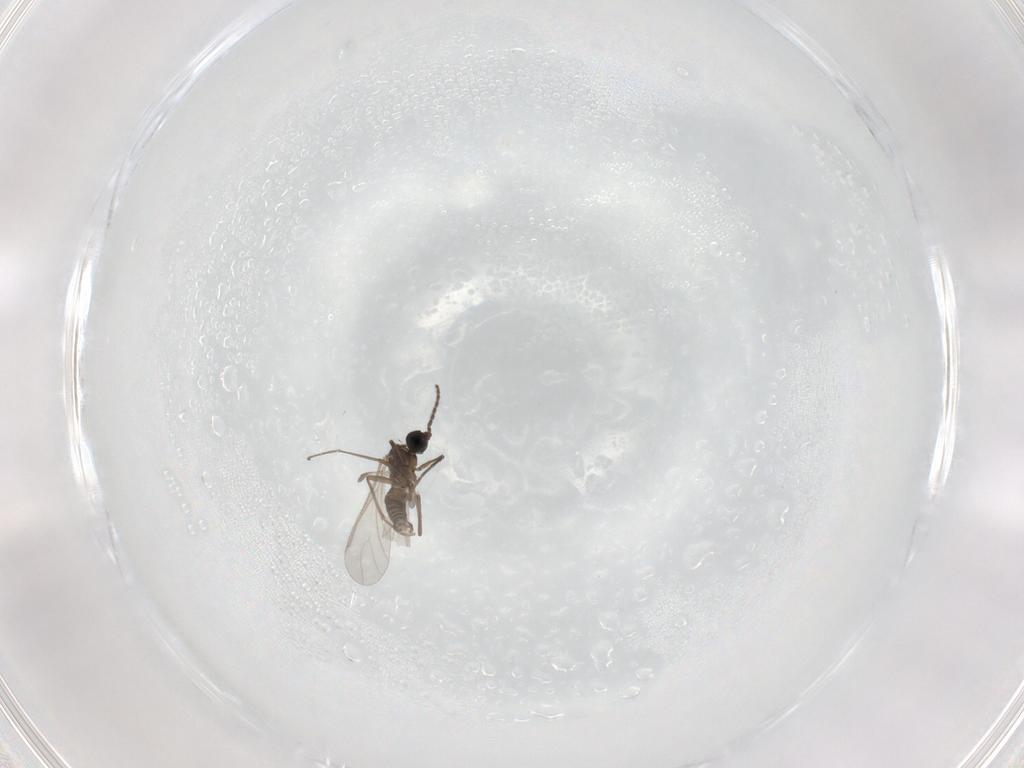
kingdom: Animalia
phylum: Arthropoda
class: Insecta
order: Diptera
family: Sciaridae
